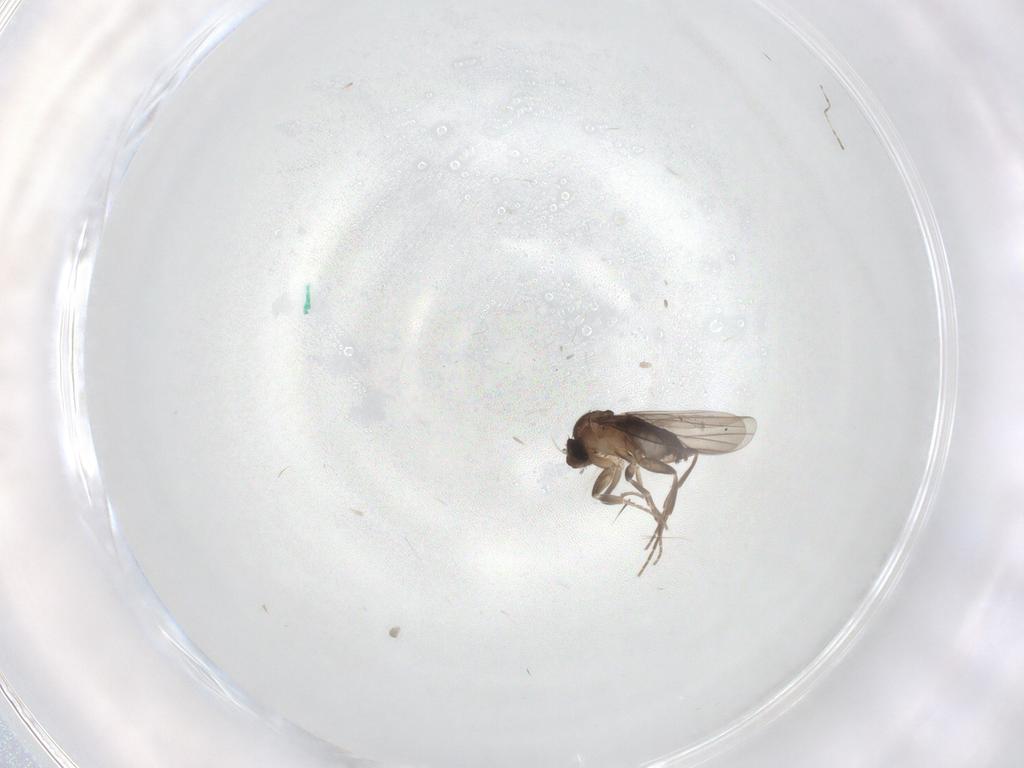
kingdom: Animalia
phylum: Arthropoda
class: Insecta
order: Diptera
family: Phoridae
